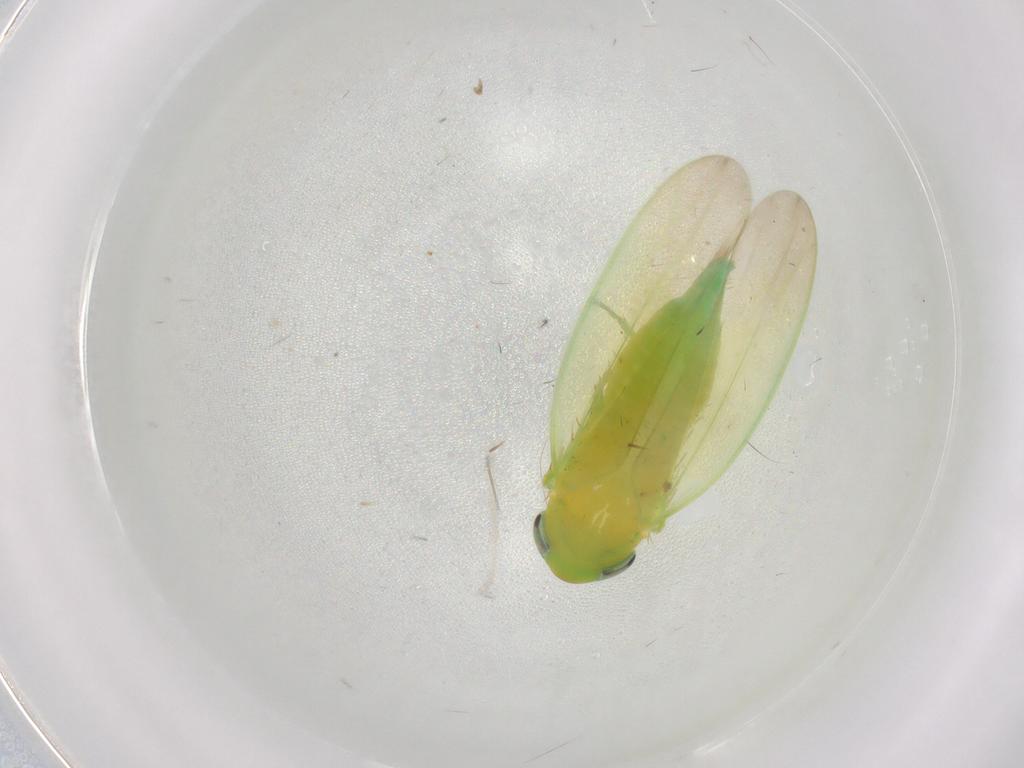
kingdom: Animalia
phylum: Arthropoda
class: Insecta
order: Hemiptera
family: Cicadellidae
